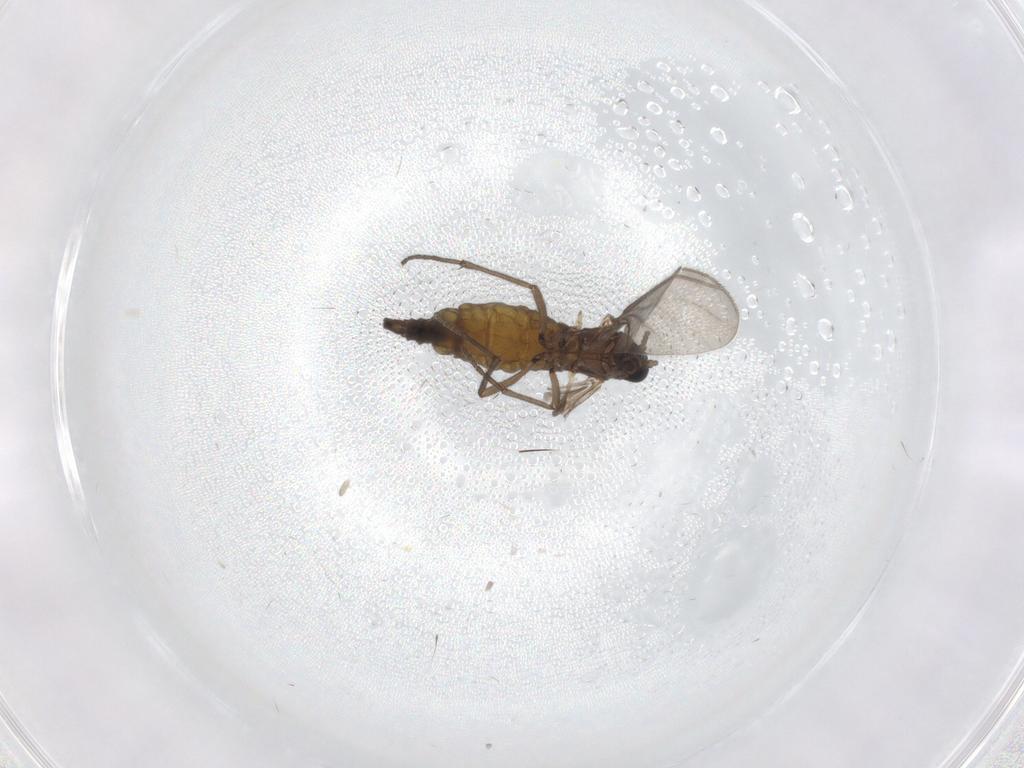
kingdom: Animalia
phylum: Arthropoda
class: Insecta
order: Diptera
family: Sciaridae
